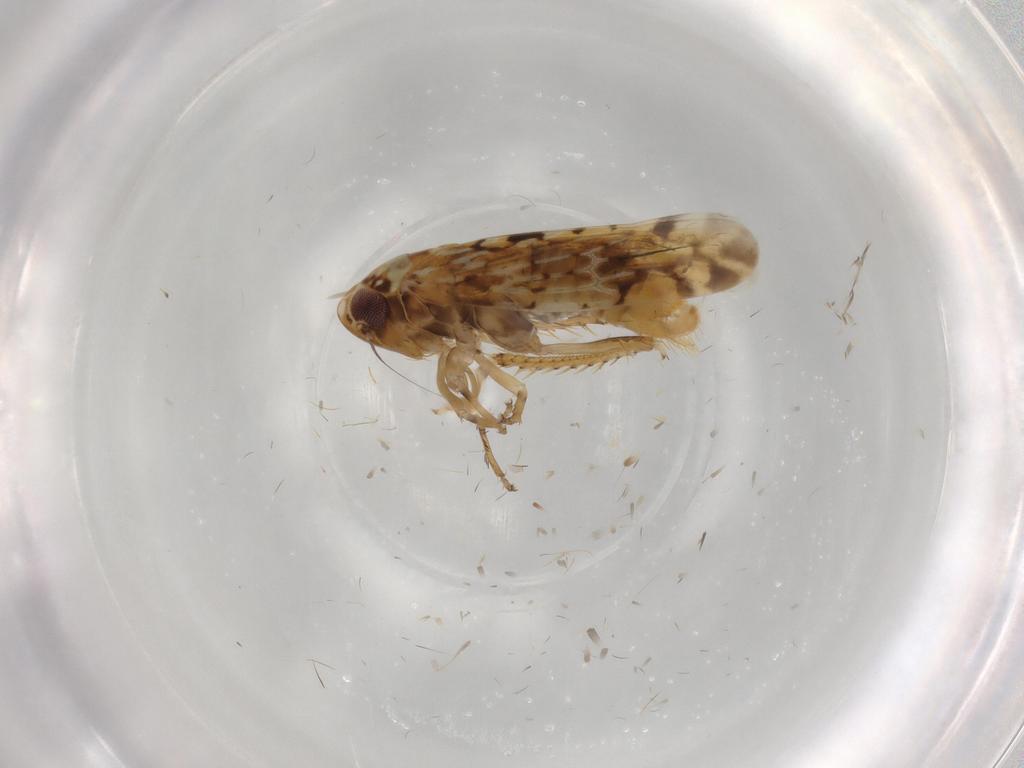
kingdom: Animalia
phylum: Arthropoda
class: Insecta
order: Hemiptera
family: Cicadellidae
